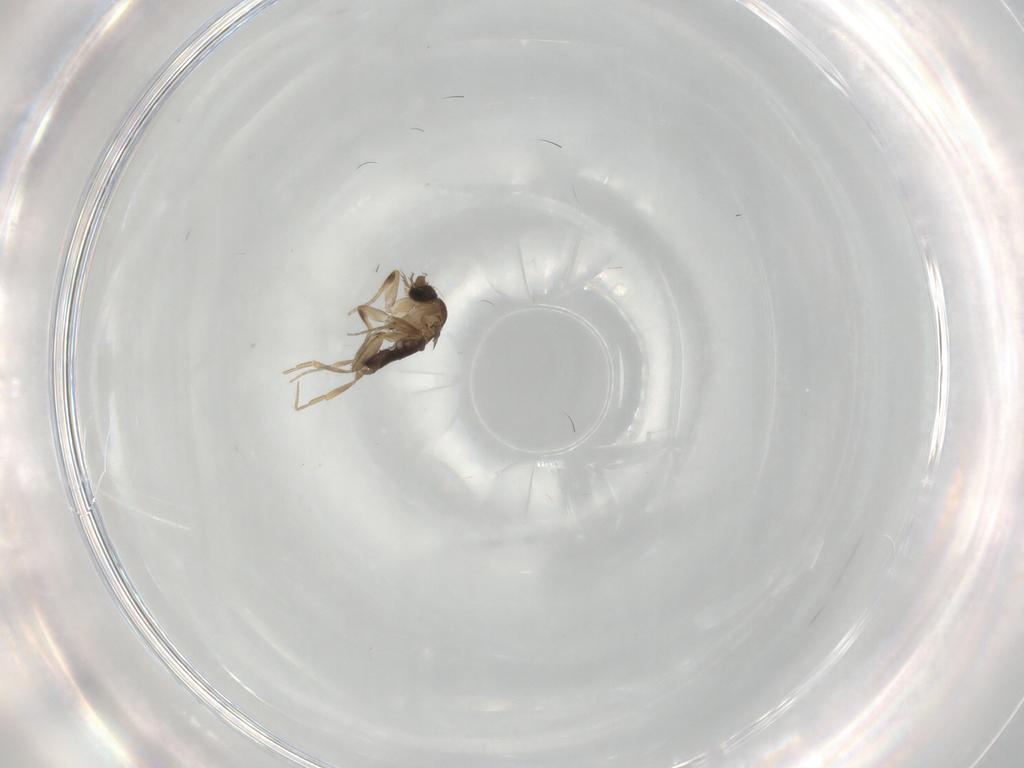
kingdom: Animalia
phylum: Arthropoda
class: Insecta
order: Diptera
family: Phoridae
